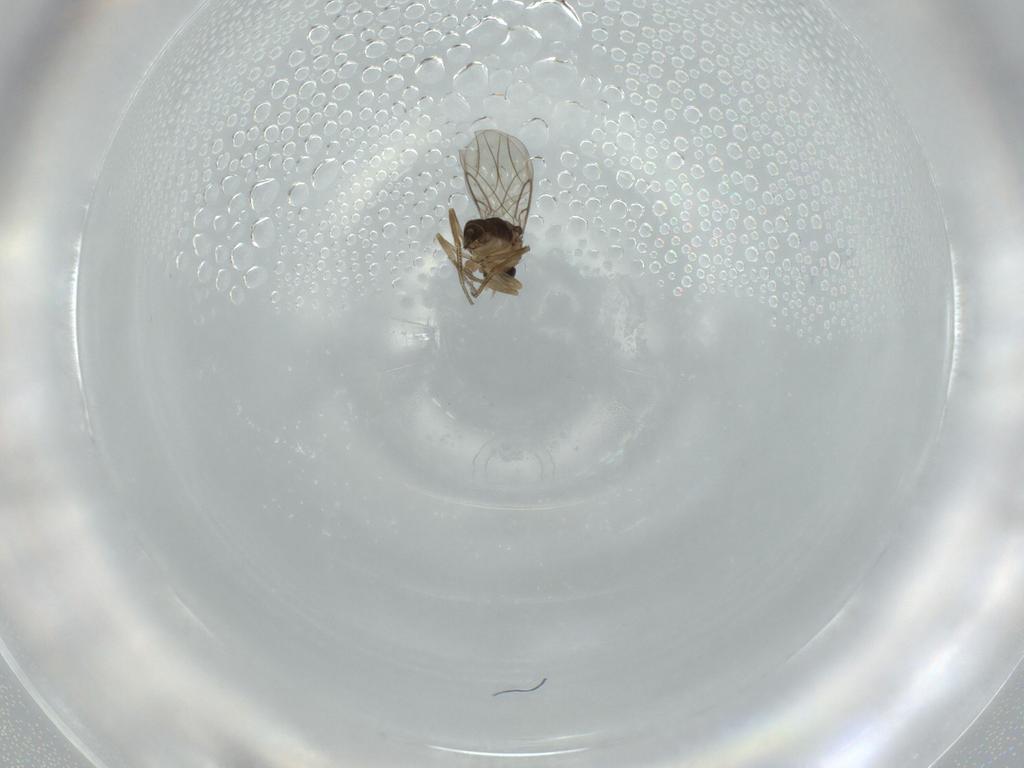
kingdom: Animalia
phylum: Arthropoda
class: Insecta
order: Diptera
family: Phoridae
